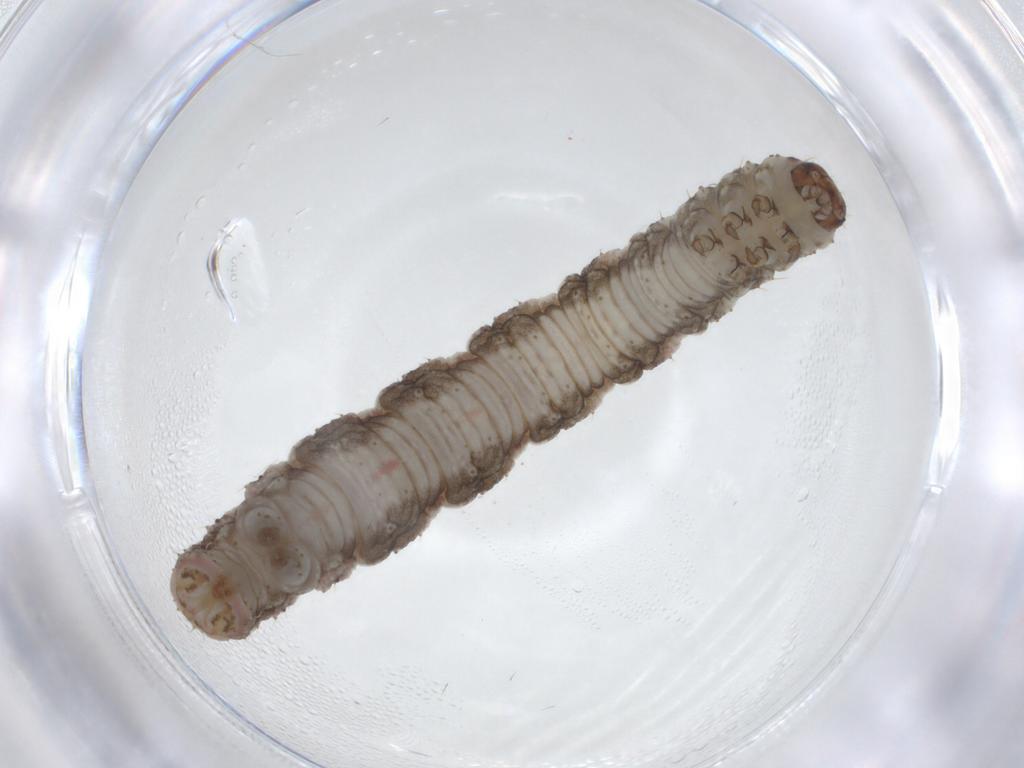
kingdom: Animalia
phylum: Arthropoda
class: Insecta
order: Lepidoptera
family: Geometridae
